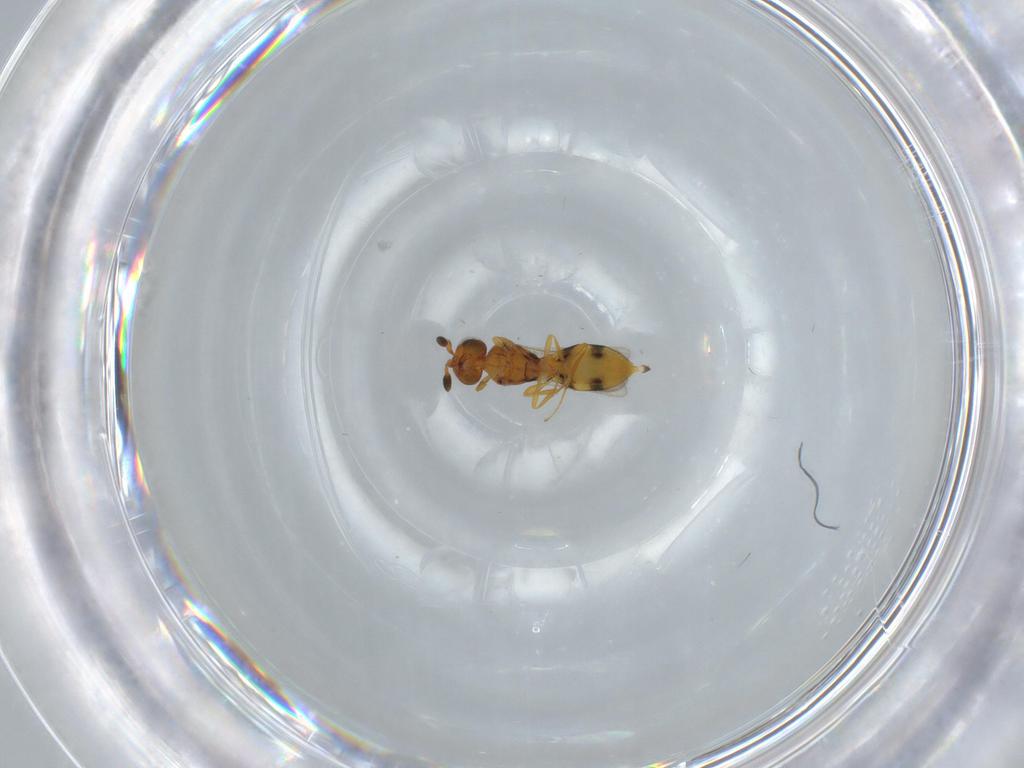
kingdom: Animalia
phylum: Arthropoda
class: Insecta
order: Hymenoptera
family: Scelionidae
